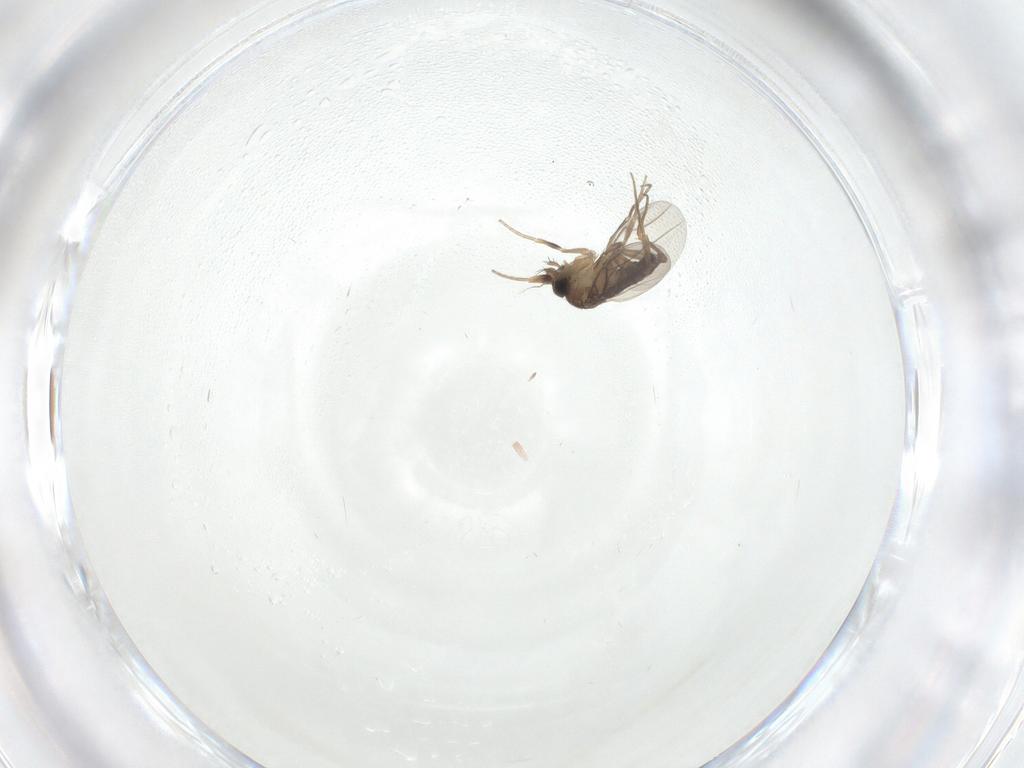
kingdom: Animalia
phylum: Arthropoda
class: Insecta
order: Diptera
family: Phoridae
